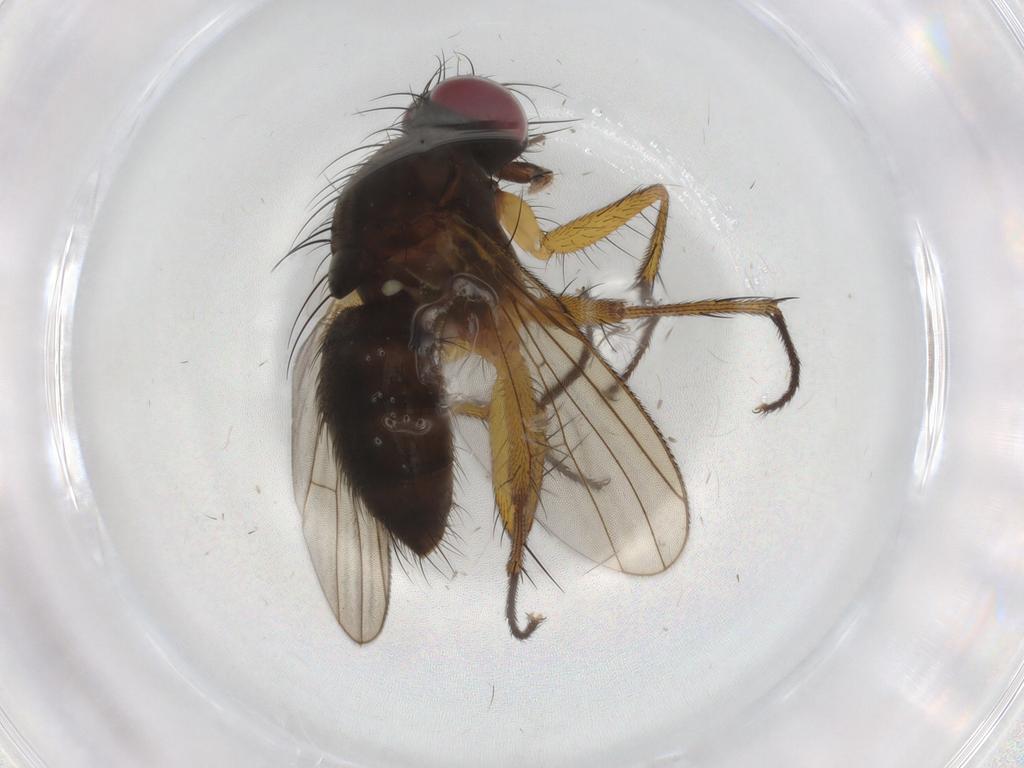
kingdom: Animalia
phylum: Arthropoda
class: Insecta
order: Diptera
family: Muscidae
